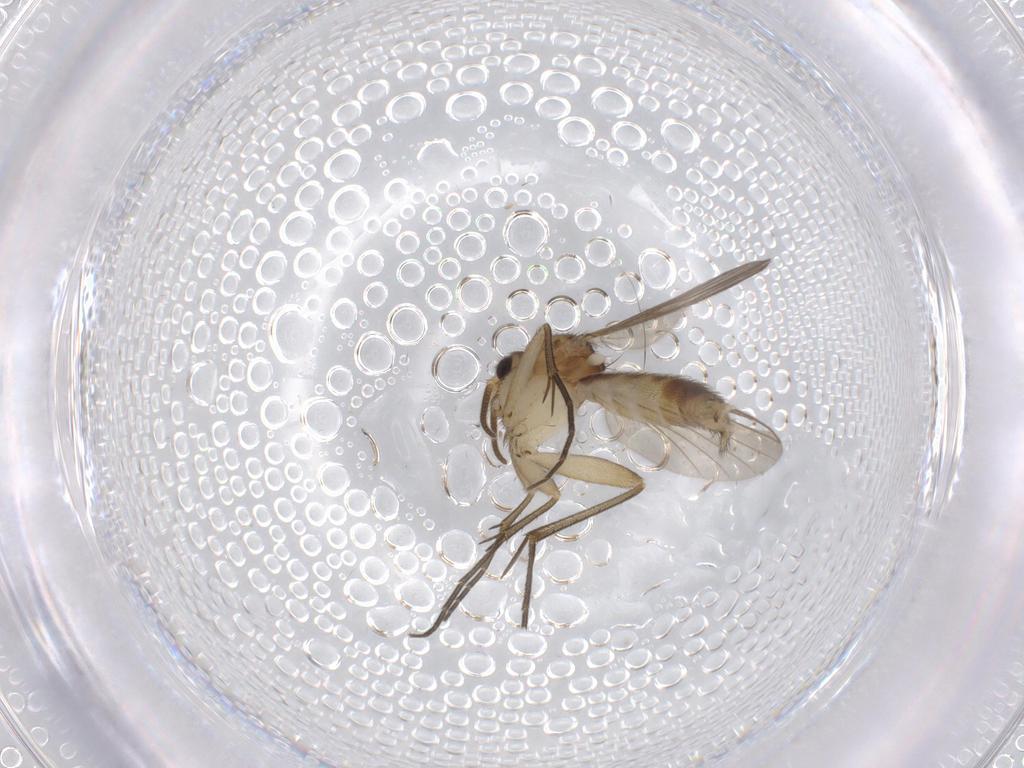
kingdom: Animalia
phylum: Arthropoda
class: Insecta
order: Diptera
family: Mycetophilidae
